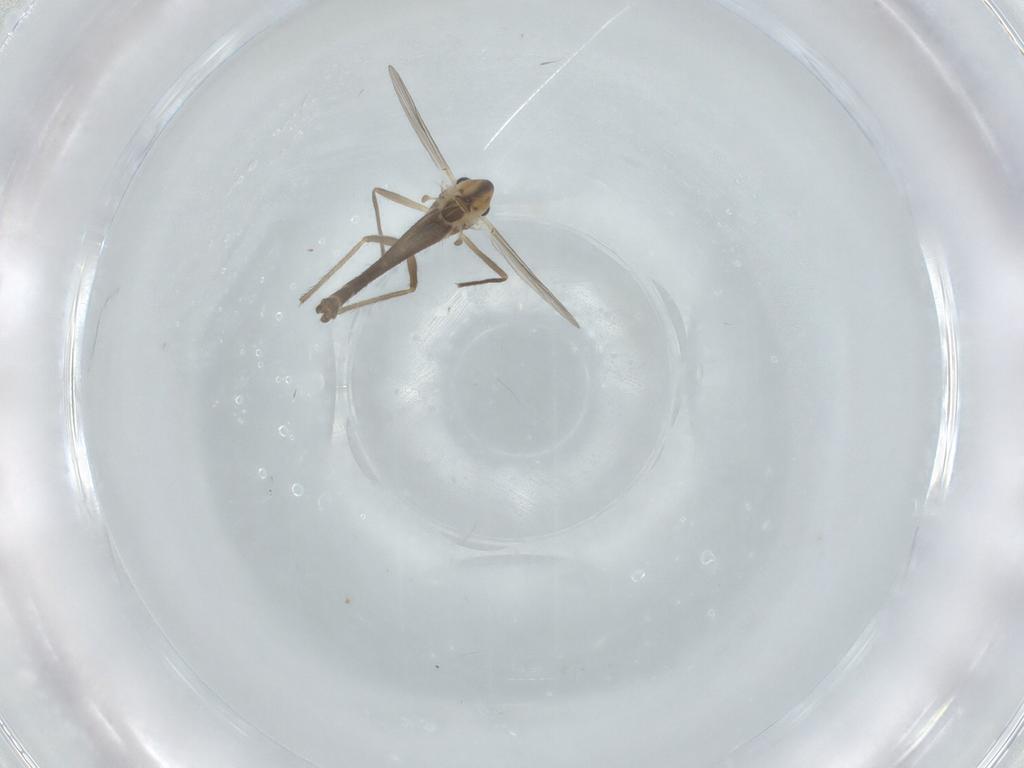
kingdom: Animalia
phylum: Arthropoda
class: Insecta
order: Diptera
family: Chironomidae
